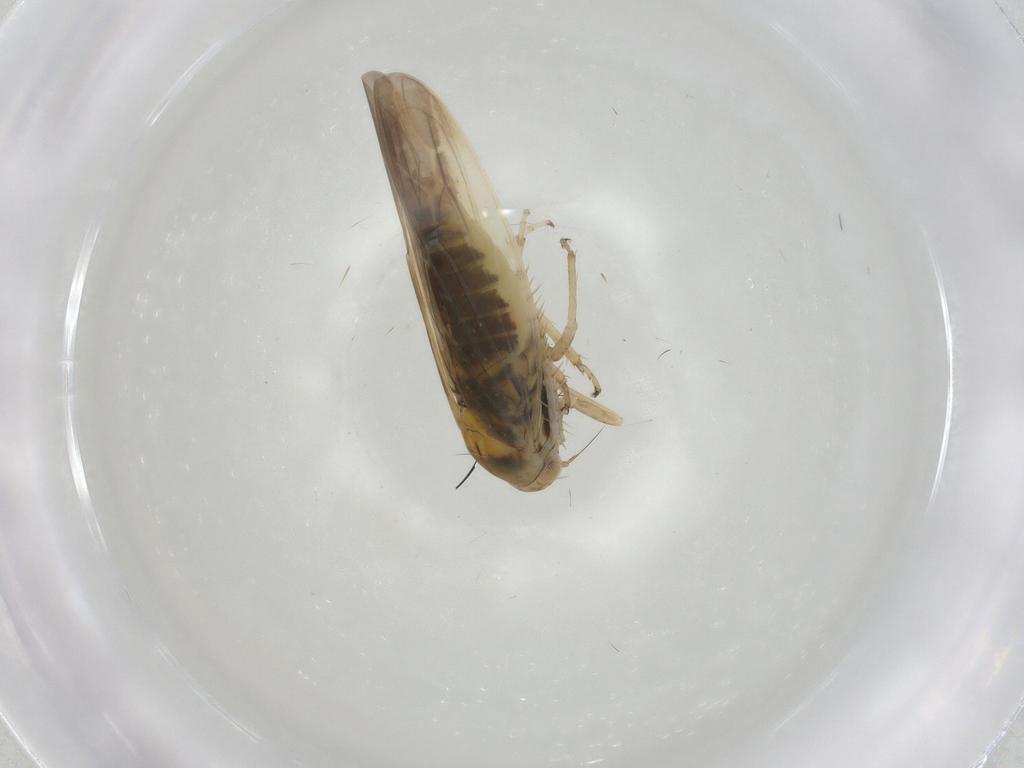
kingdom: Animalia
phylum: Arthropoda
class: Insecta
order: Hemiptera
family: Cicadellidae
